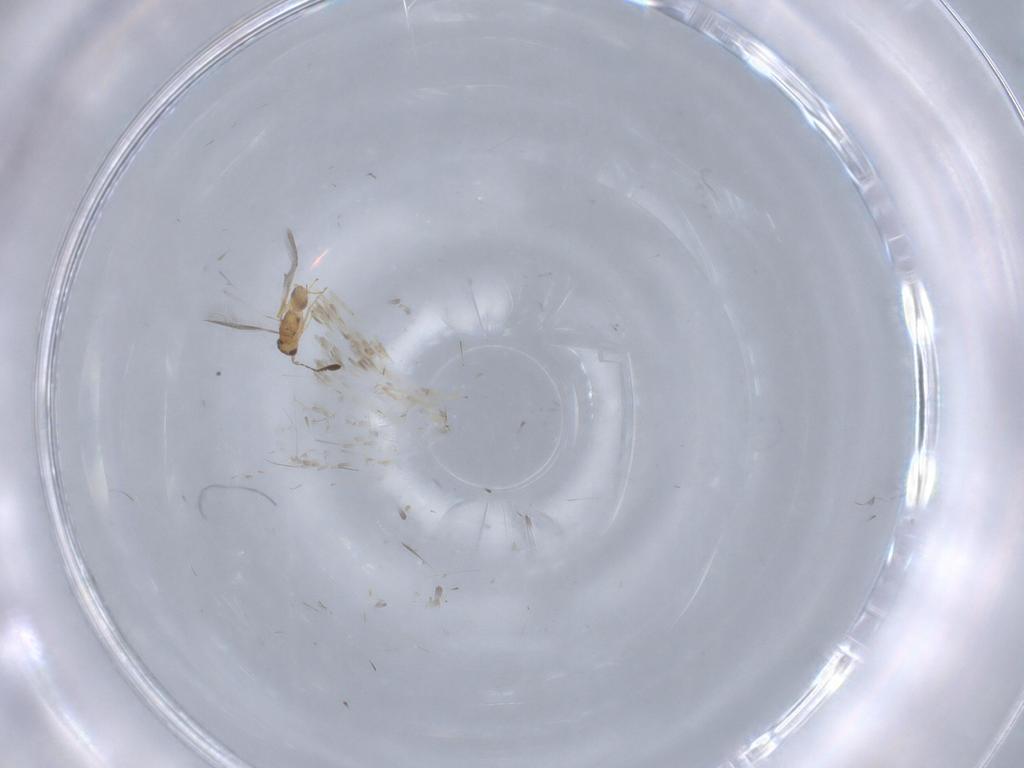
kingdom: Animalia
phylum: Arthropoda
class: Insecta
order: Hymenoptera
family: Diapriidae
